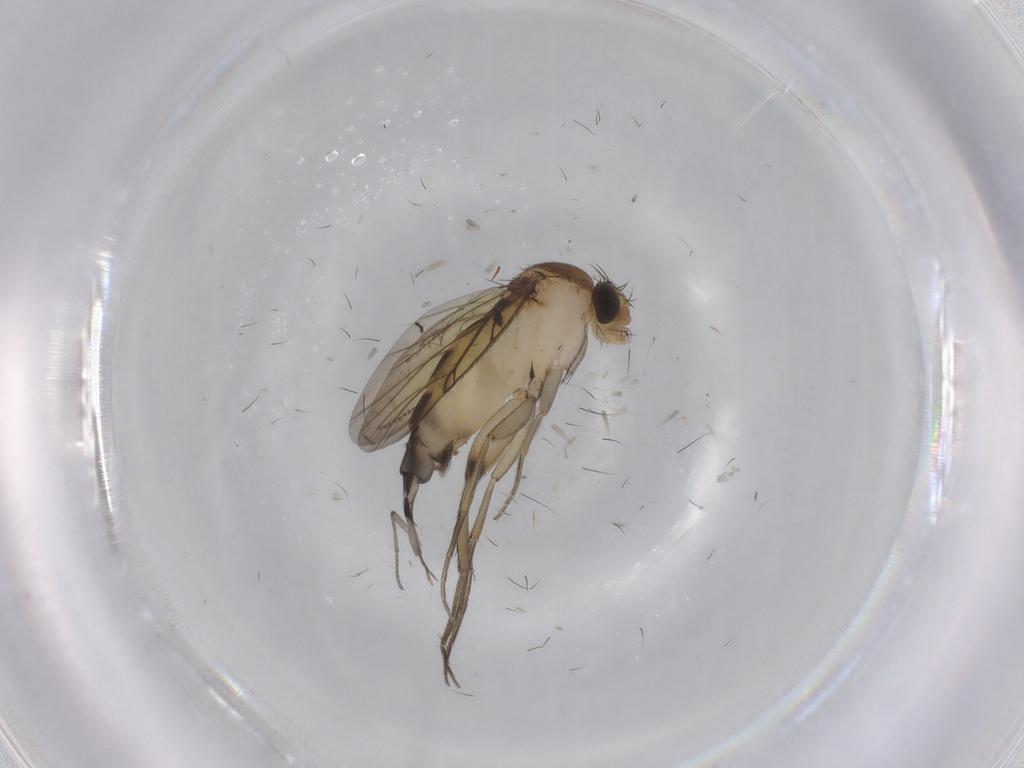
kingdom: Animalia
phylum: Arthropoda
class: Insecta
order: Diptera
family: Phoridae
